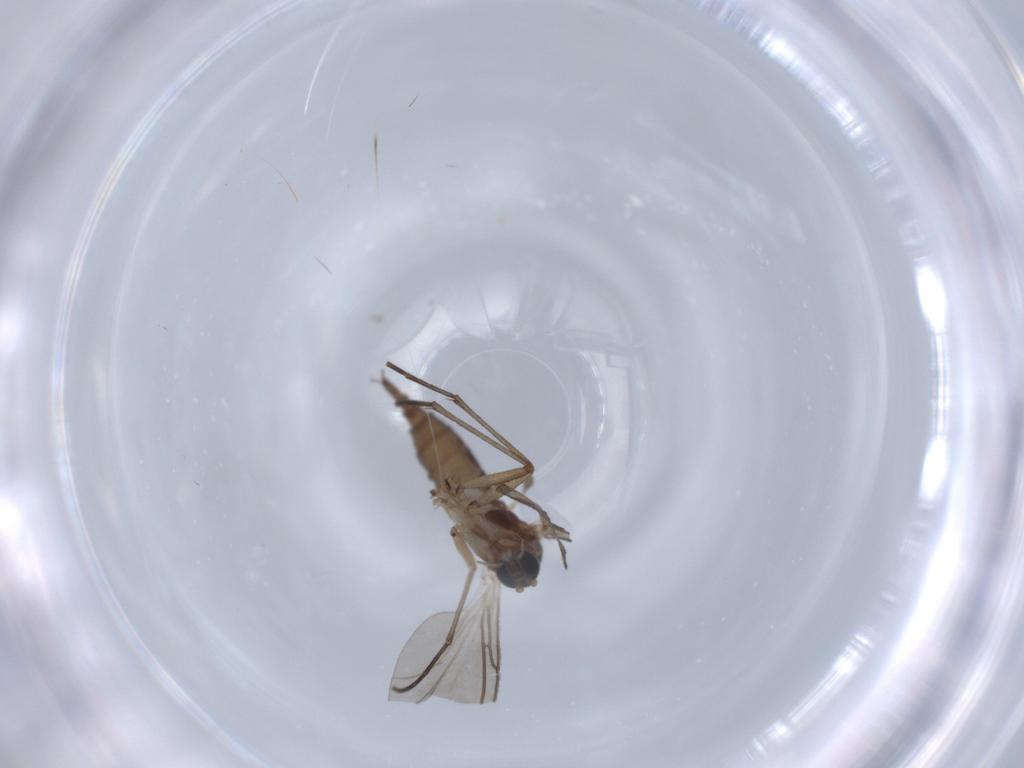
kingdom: Animalia
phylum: Arthropoda
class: Insecta
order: Diptera
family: Sciaridae
